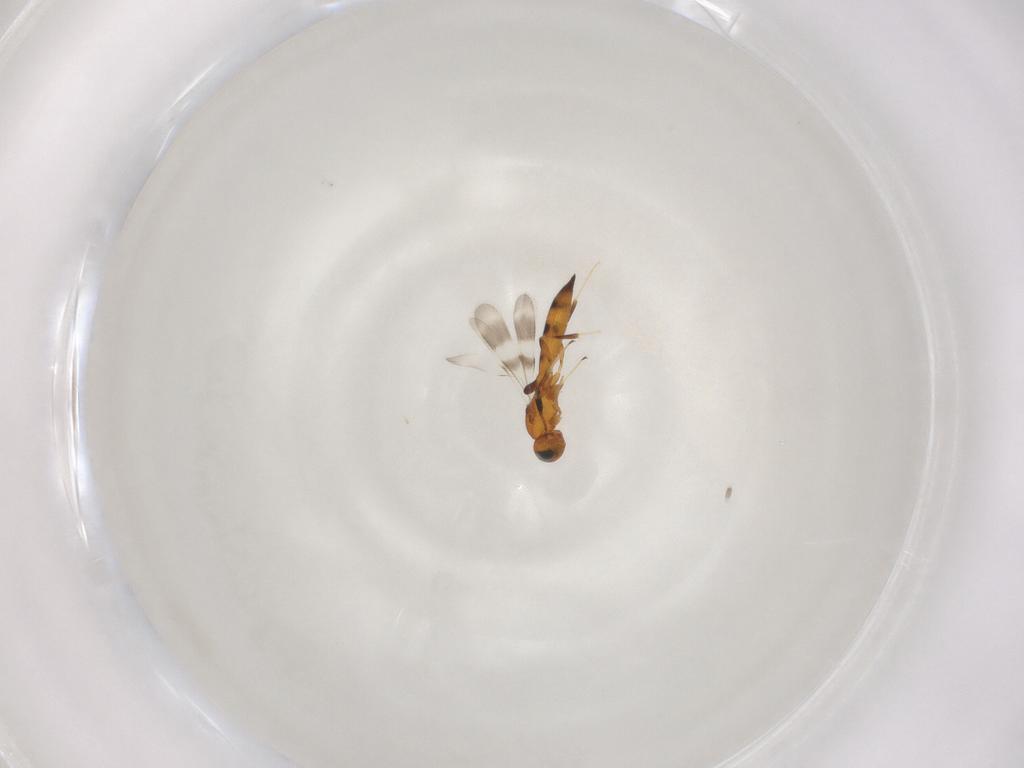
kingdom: Animalia
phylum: Arthropoda
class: Insecta
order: Hymenoptera
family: Scelionidae
